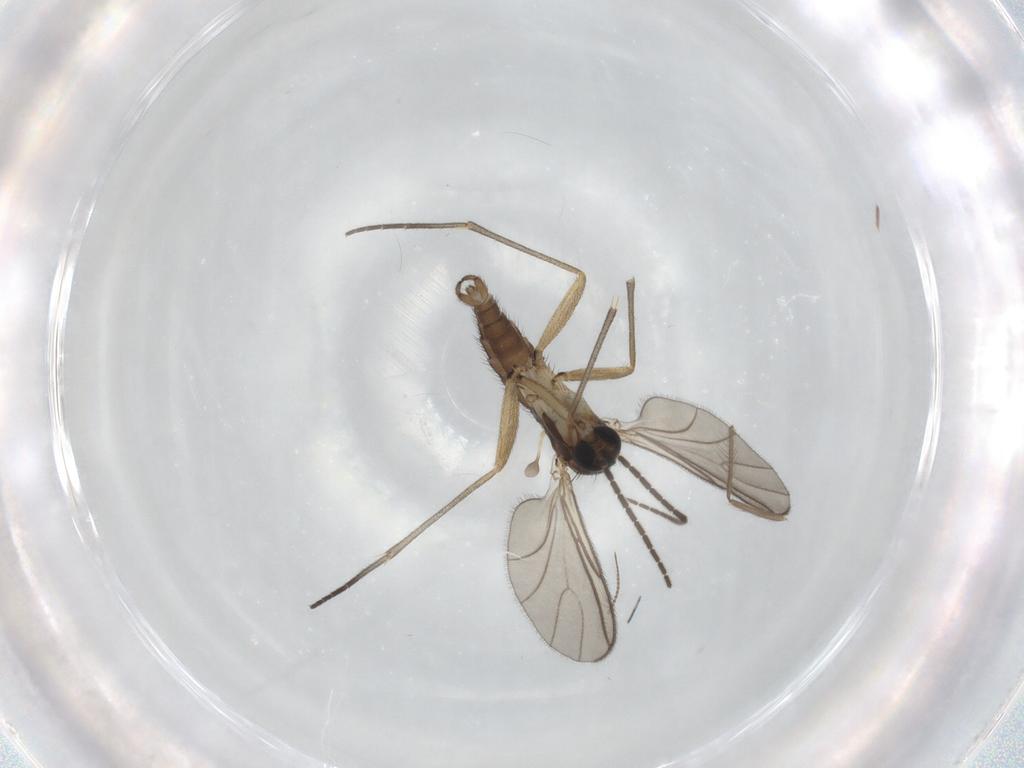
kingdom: Animalia
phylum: Arthropoda
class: Insecta
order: Diptera
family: Sciaridae
